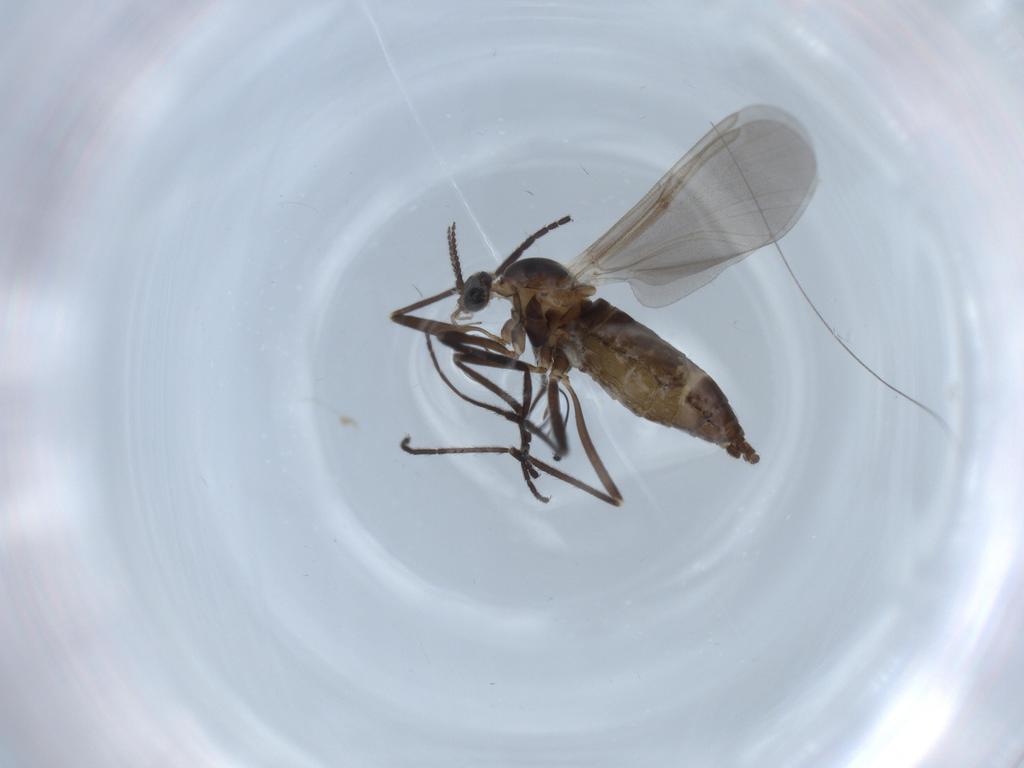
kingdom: Animalia
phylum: Arthropoda
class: Insecta
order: Diptera
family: Cecidomyiidae
